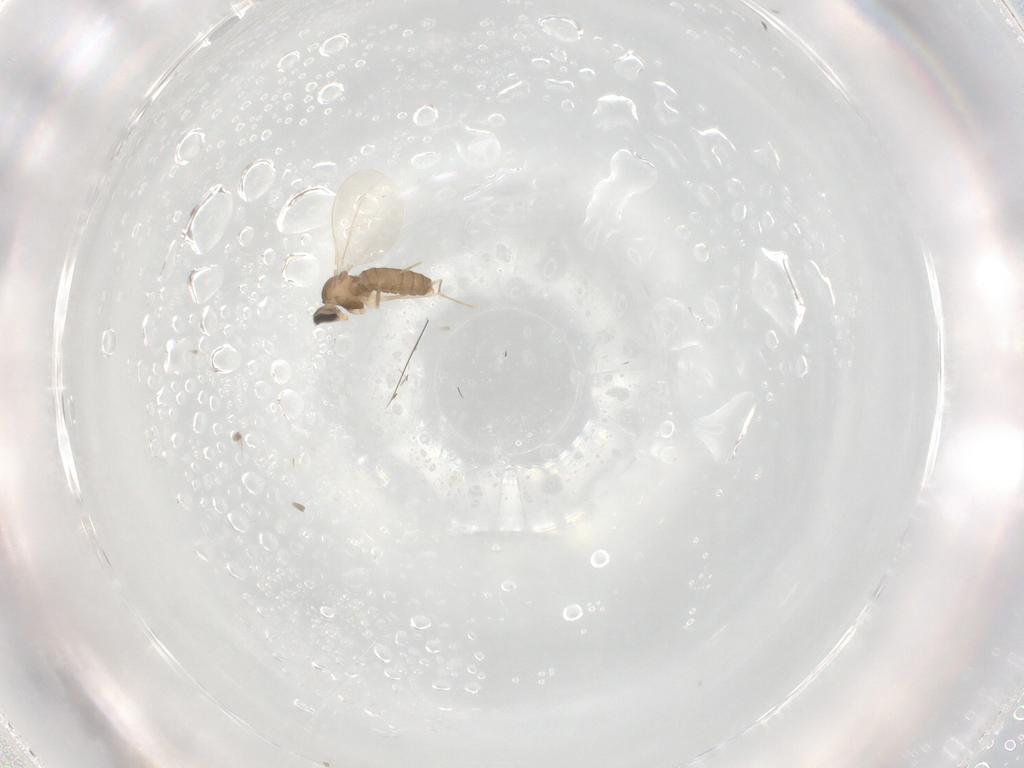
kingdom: Animalia
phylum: Arthropoda
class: Insecta
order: Diptera
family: Cecidomyiidae
